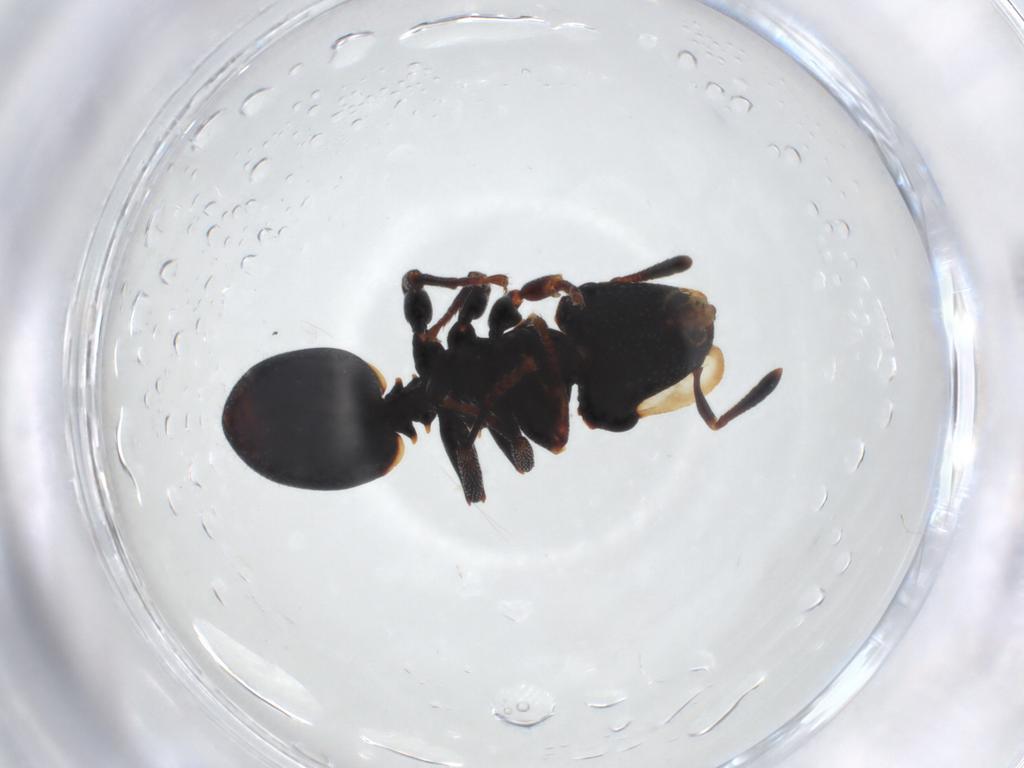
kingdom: Animalia
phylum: Arthropoda
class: Insecta
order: Hymenoptera
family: Formicidae
